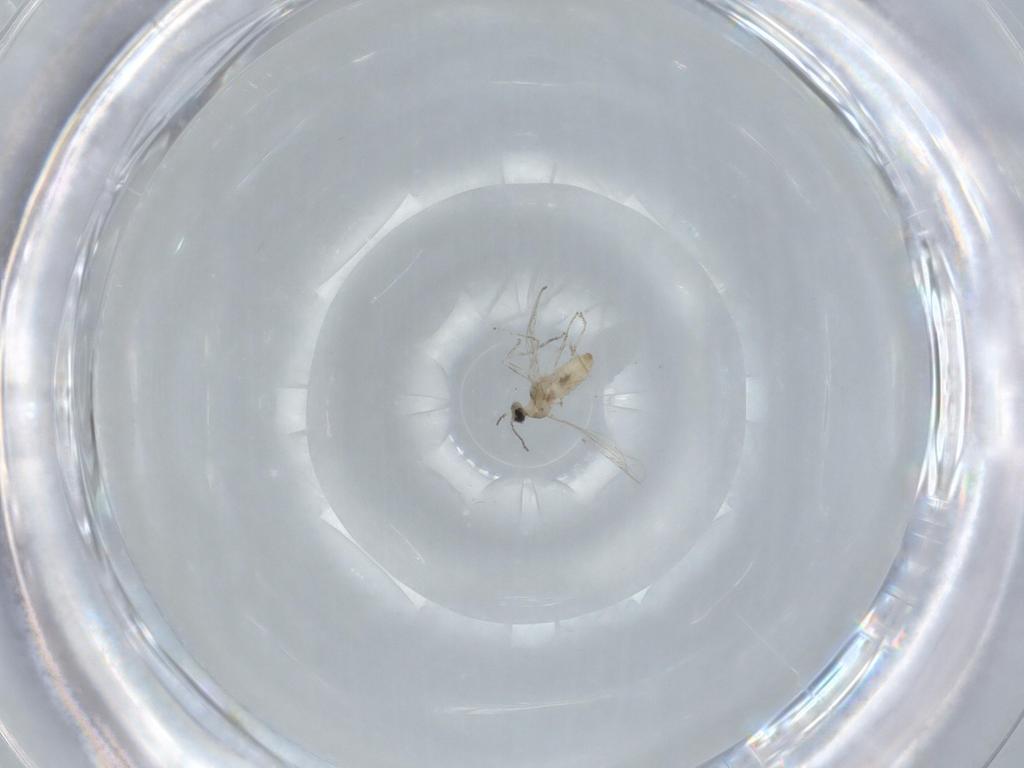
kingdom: Animalia
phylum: Arthropoda
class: Insecta
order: Diptera
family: Cecidomyiidae
